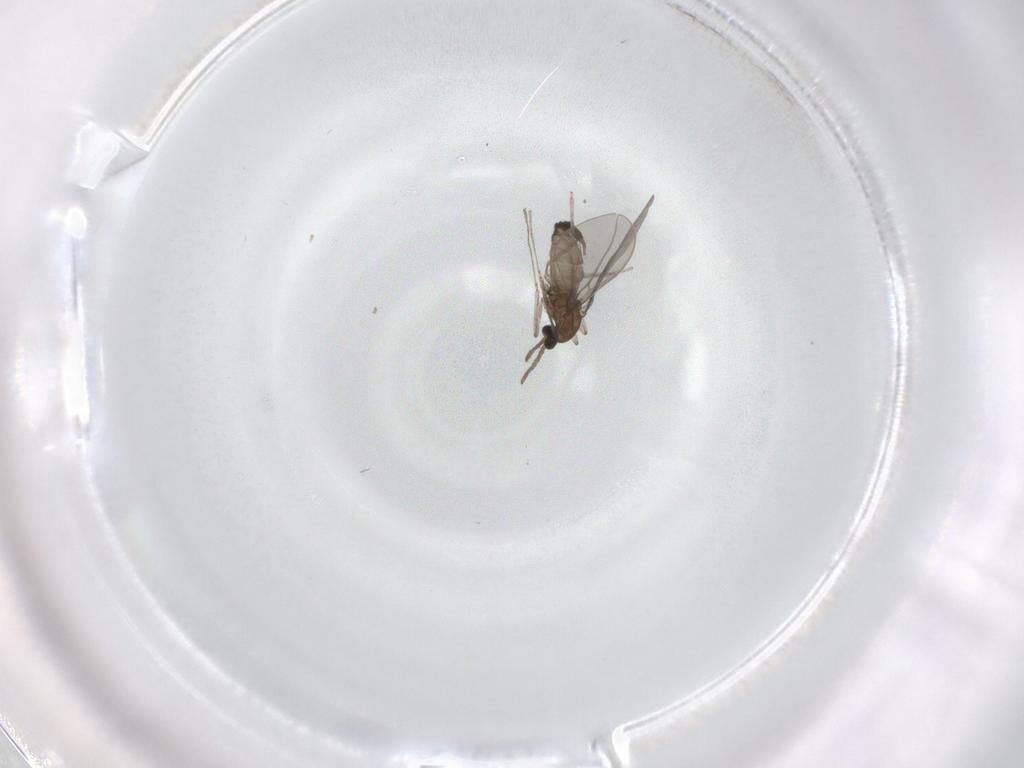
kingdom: Animalia
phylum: Arthropoda
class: Insecta
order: Diptera
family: Cecidomyiidae
